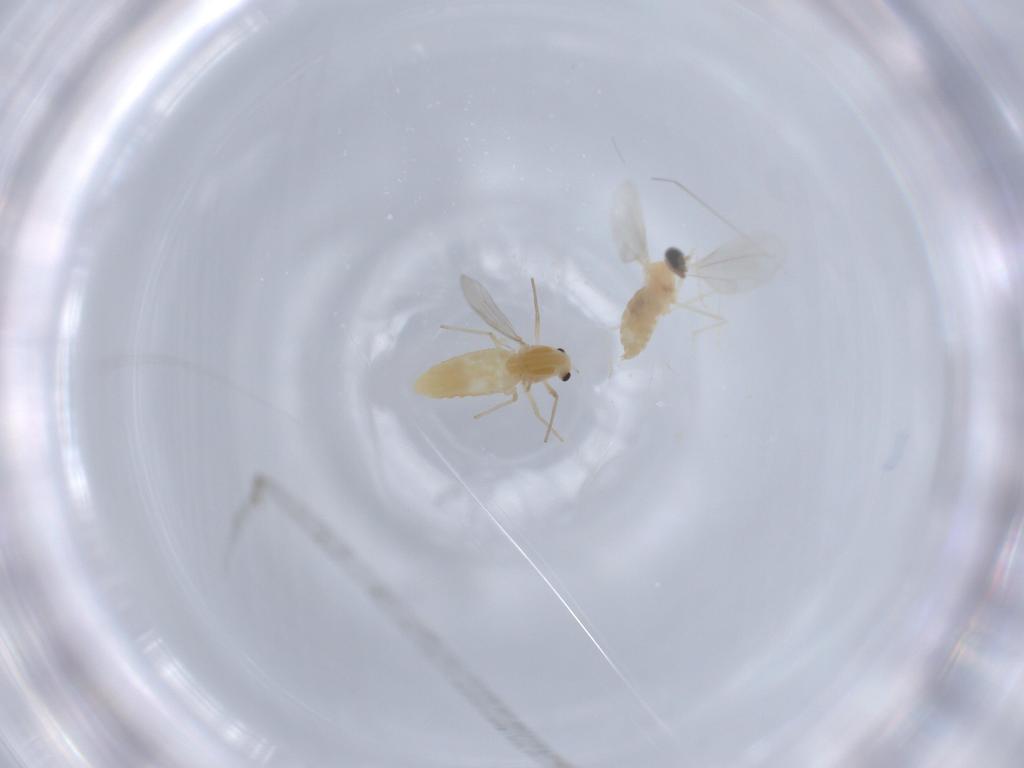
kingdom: Animalia
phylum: Arthropoda
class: Insecta
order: Diptera
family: Chironomidae
